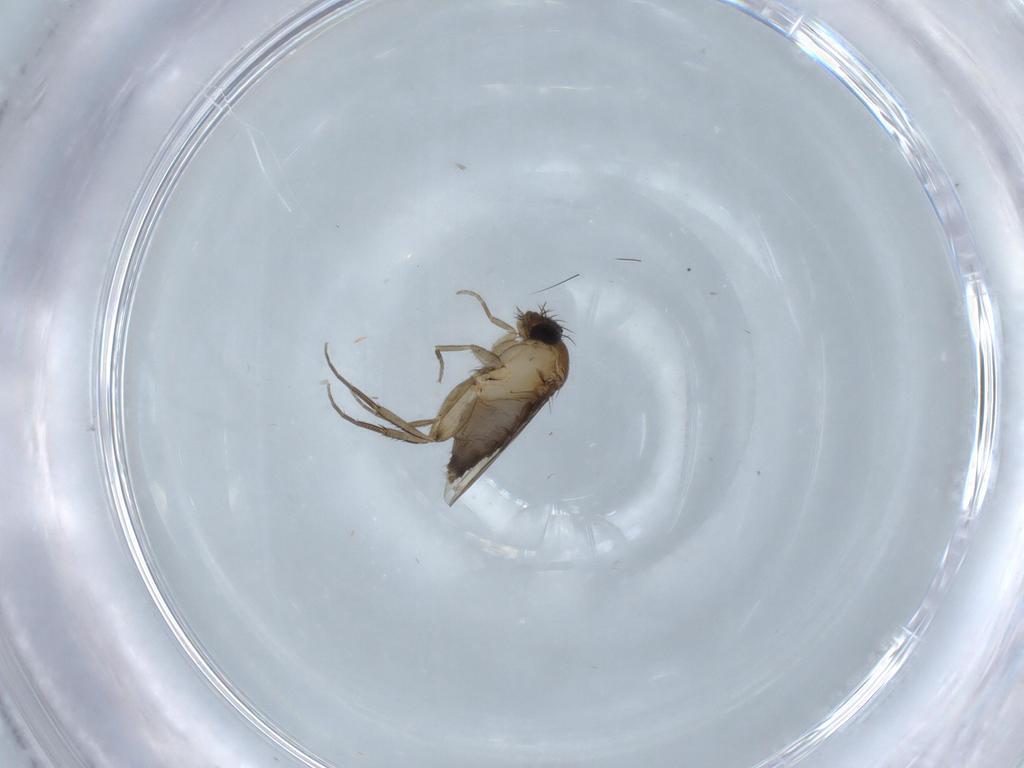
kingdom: Animalia
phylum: Arthropoda
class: Insecta
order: Diptera
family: Phoridae
